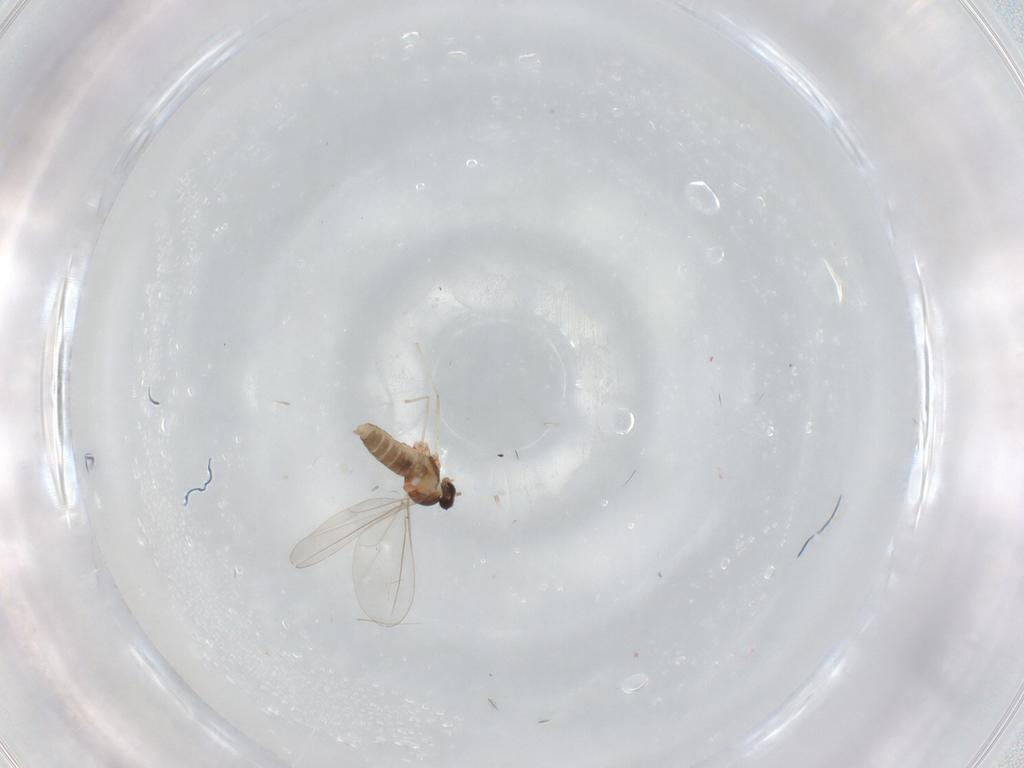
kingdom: Animalia
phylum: Arthropoda
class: Insecta
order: Diptera
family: Cecidomyiidae
